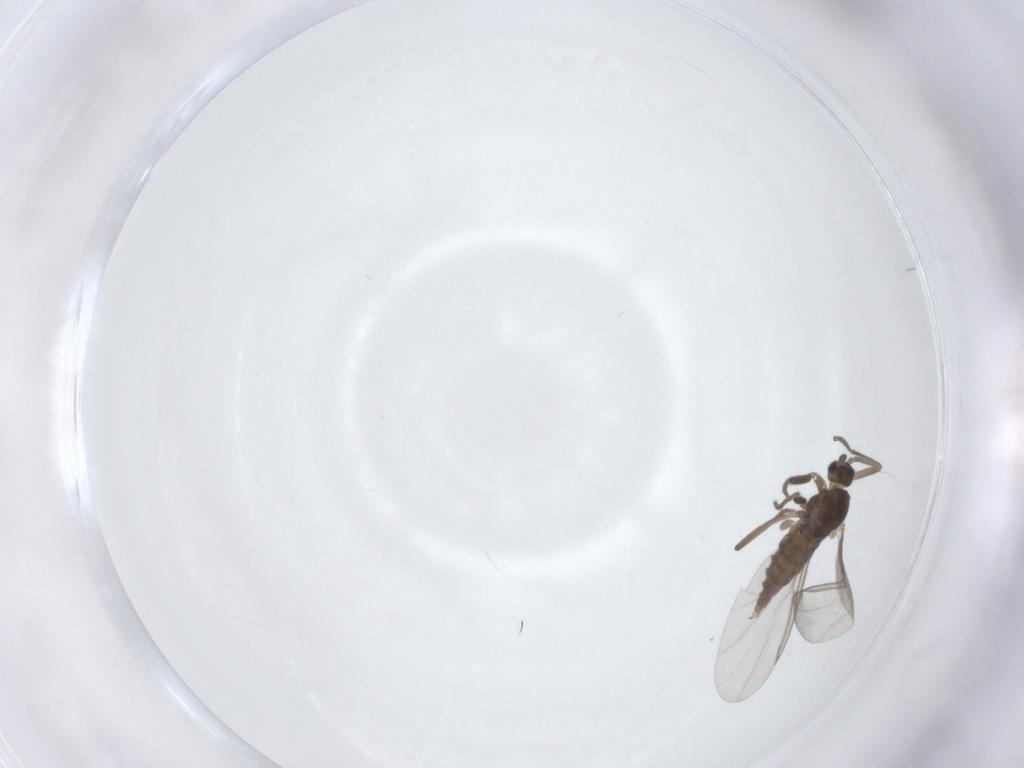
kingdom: Animalia
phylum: Arthropoda
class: Insecta
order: Diptera
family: Cecidomyiidae
